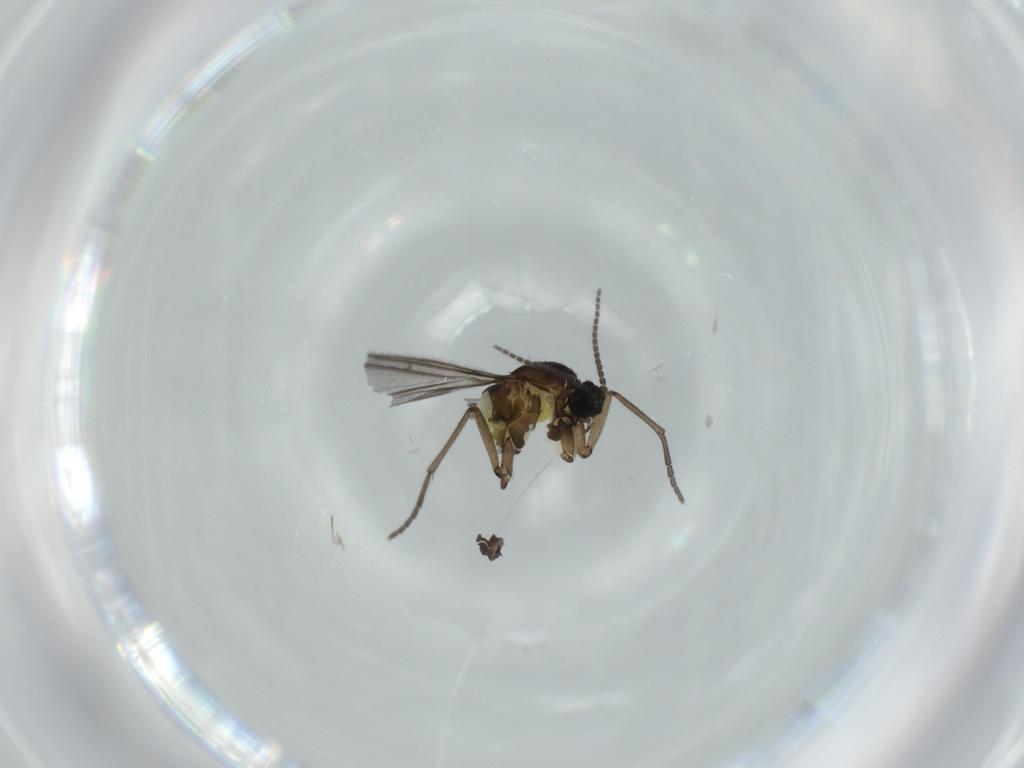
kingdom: Animalia
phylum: Arthropoda
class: Insecta
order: Diptera
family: Sciaridae
